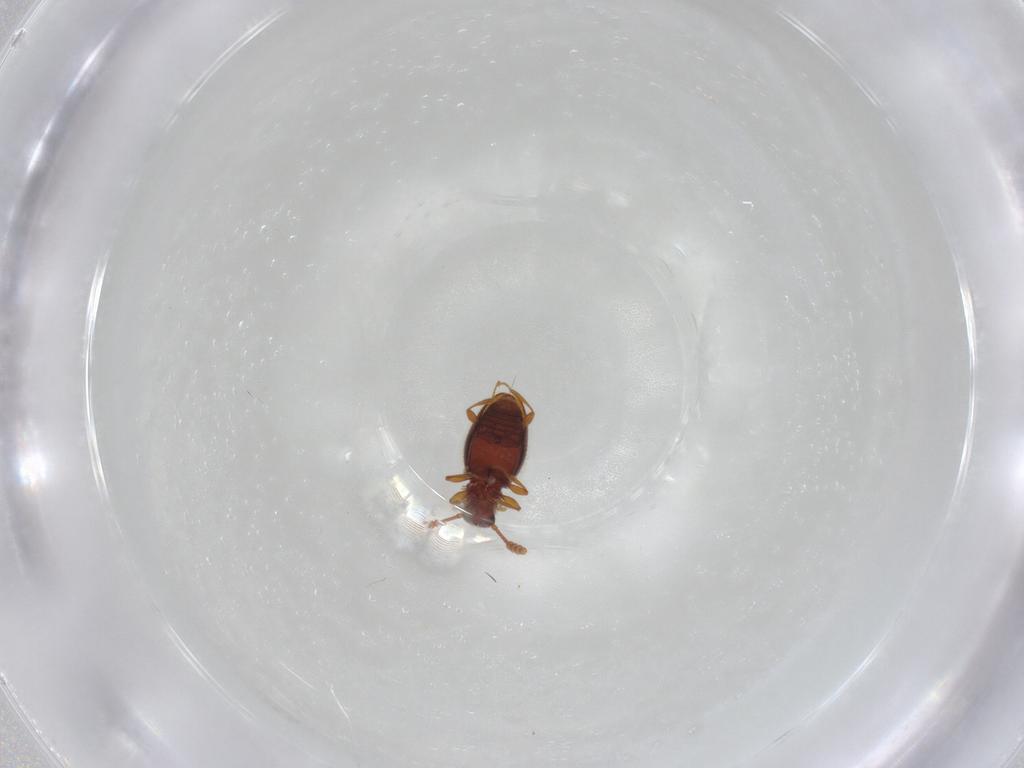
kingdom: Animalia
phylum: Arthropoda
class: Insecta
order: Coleoptera
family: Staphylinidae
